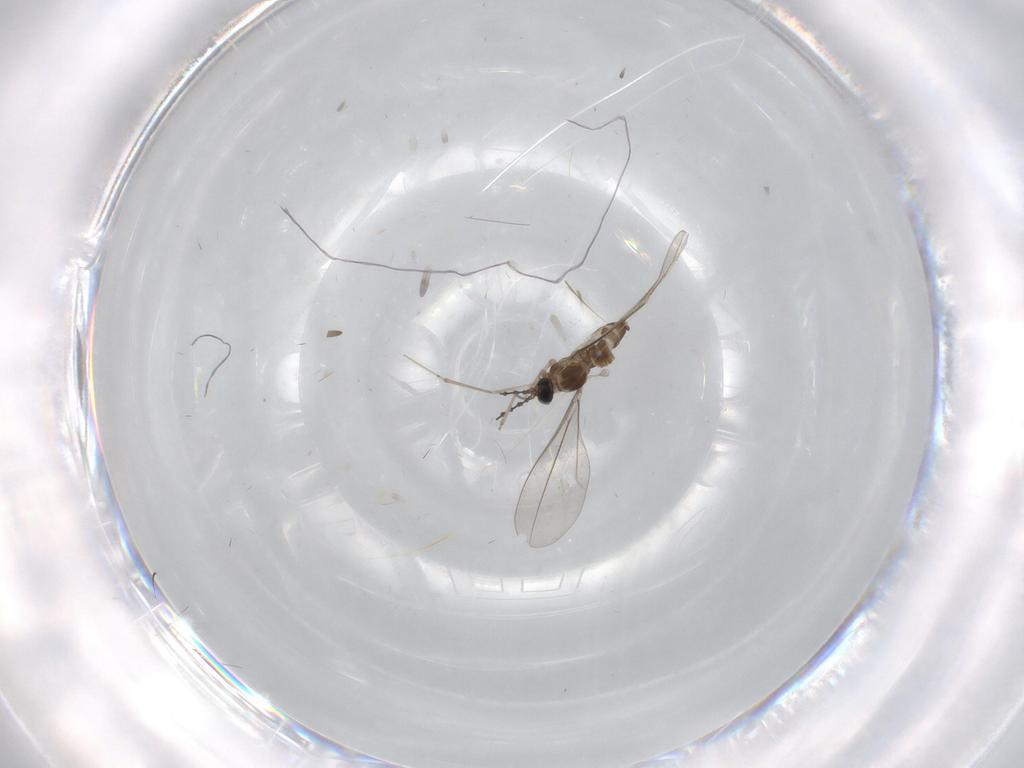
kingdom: Animalia
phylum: Arthropoda
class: Insecta
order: Diptera
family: Cecidomyiidae
